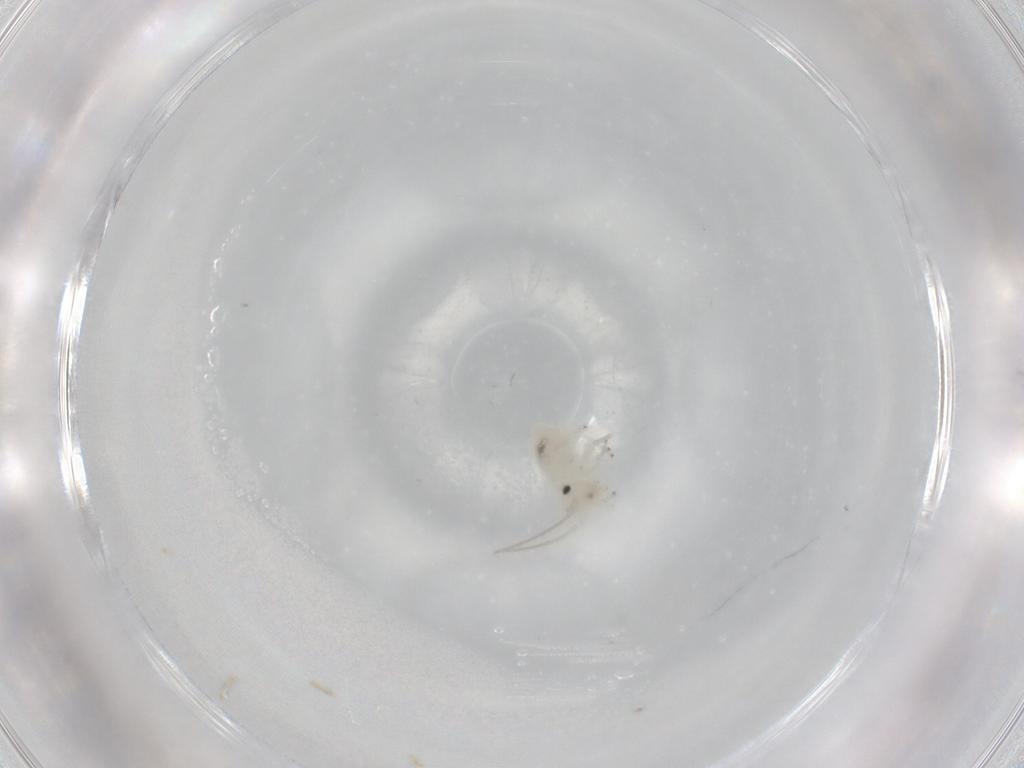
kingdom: Animalia
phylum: Arthropoda
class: Insecta
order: Psocodea
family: Caeciliusidae
